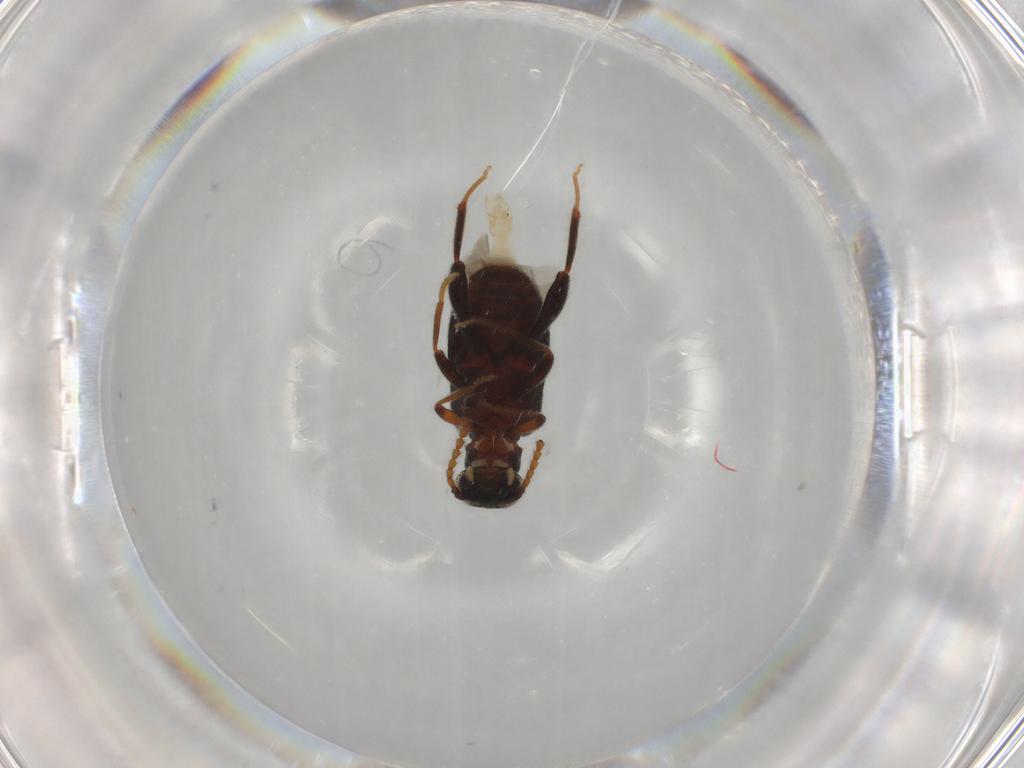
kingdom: Animalia
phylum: Arthropoda
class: Insecta
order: Coleoptera
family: Aderidae
